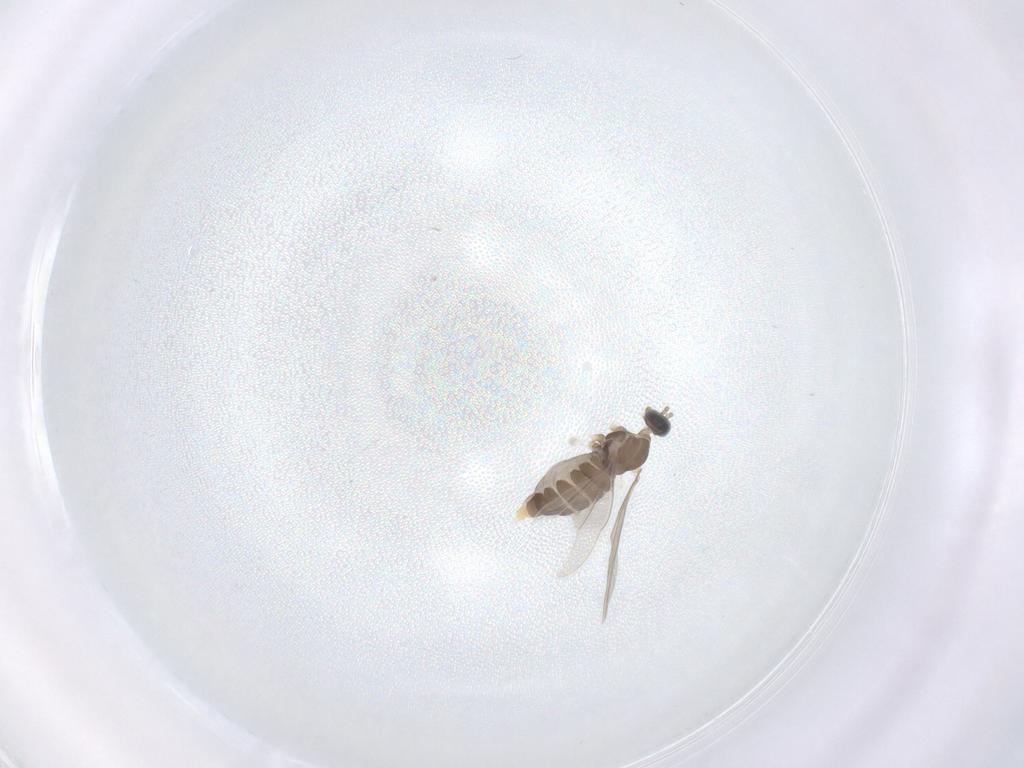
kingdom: Animalia
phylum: Arthropoda
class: Insecta
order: Diptera
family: Cecidomyiidae
